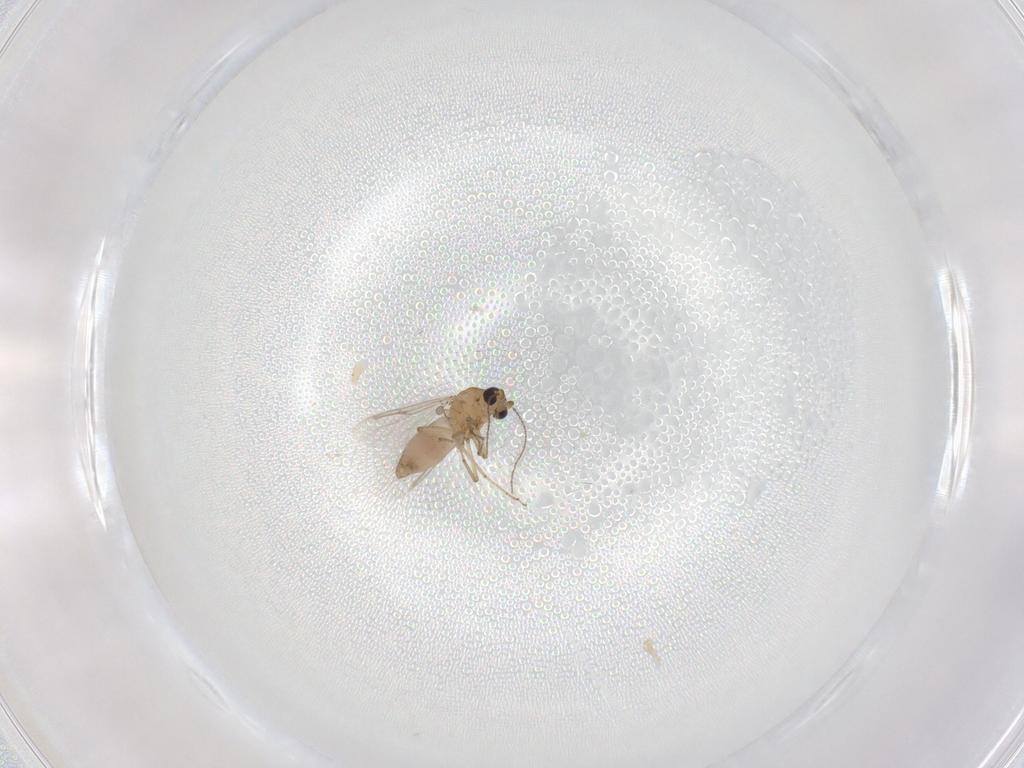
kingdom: Animalia
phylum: Arthropoda
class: Insecta
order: Diptera
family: Ceratopogonidae
